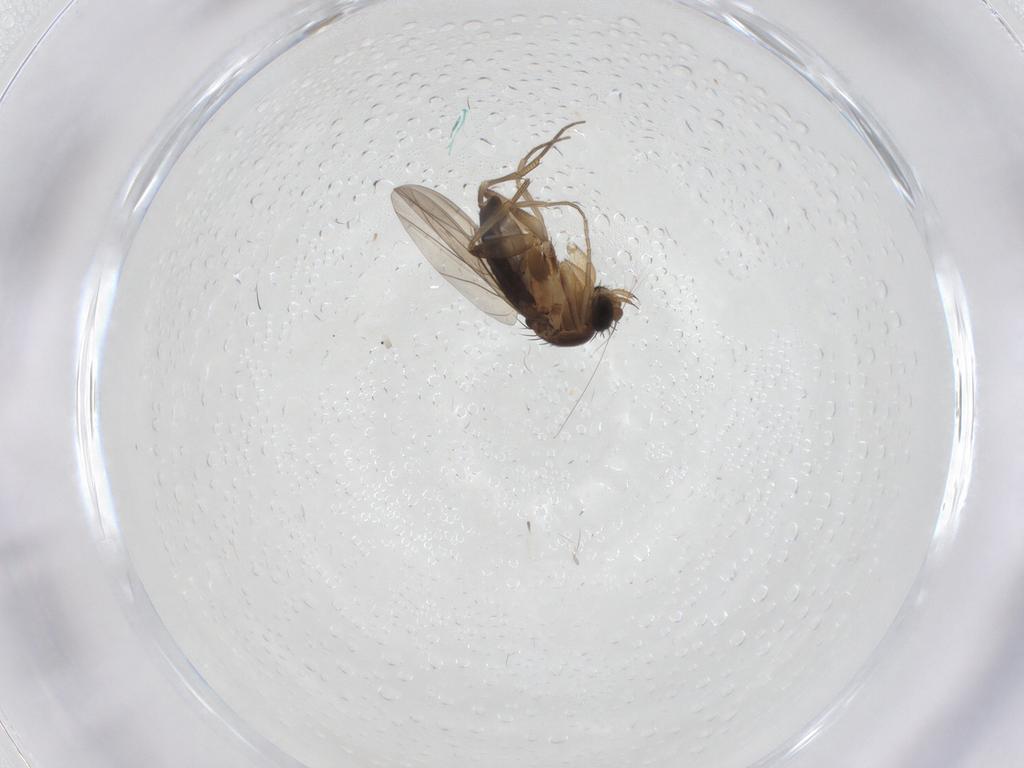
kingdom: Animalia
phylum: Arthropoda
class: Insecta
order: Diptera
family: Phoridae
